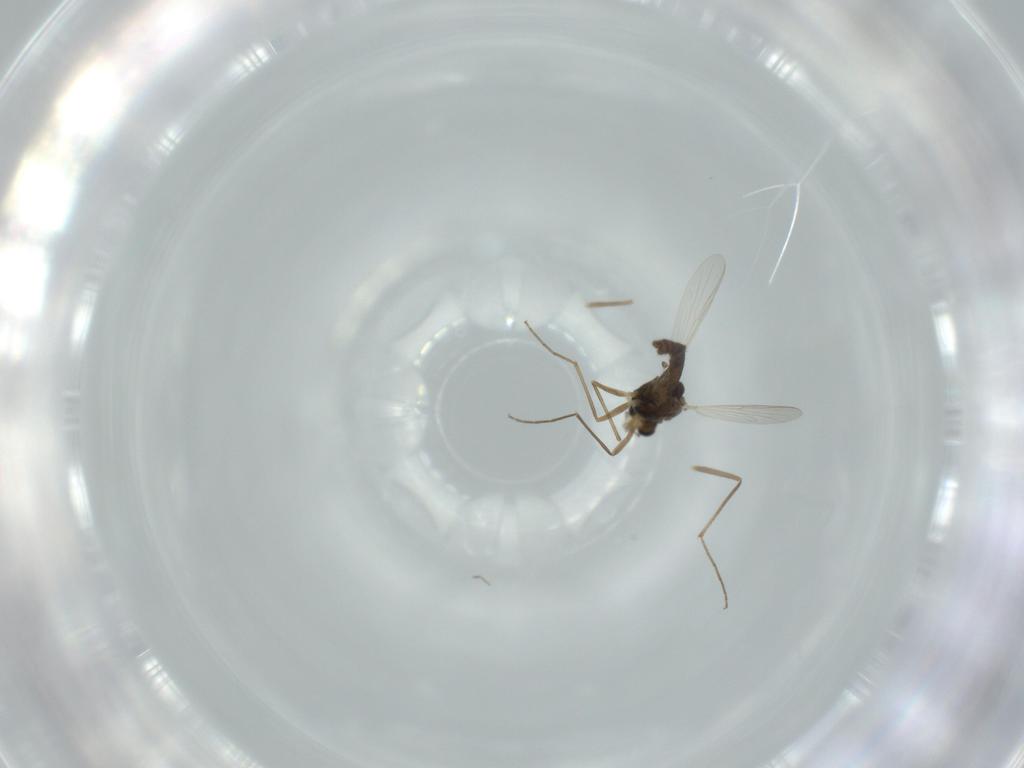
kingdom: Animalia
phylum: Arthropoda
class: Insecta
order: Diptera
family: Chironomidae
